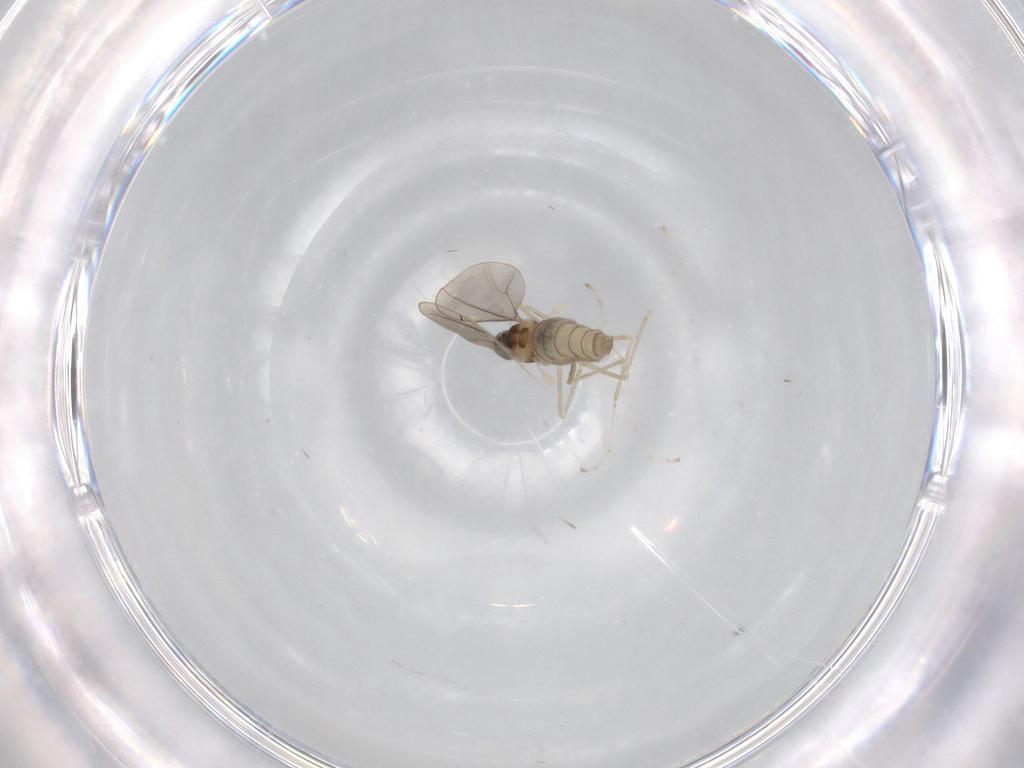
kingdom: Animalia
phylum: Arthropoda
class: Insecta
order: Diptera
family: Cecidomyiidae
